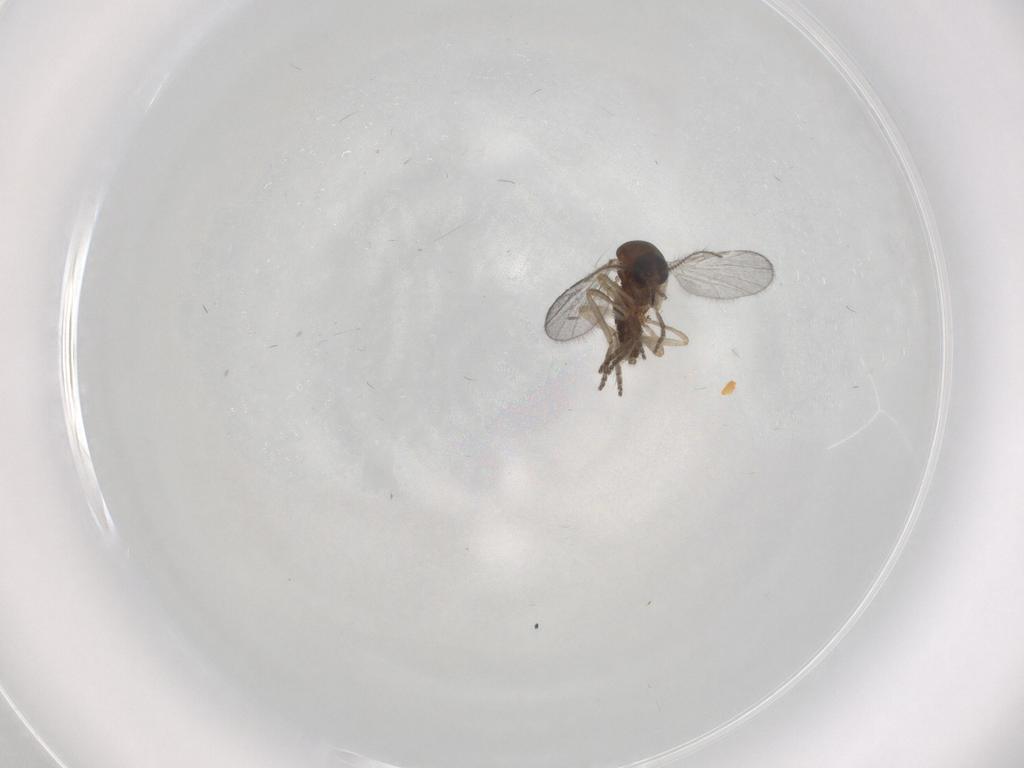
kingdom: Animalia
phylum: Arthropoda
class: Insecta
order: Diptera
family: Ceratopogonidae
